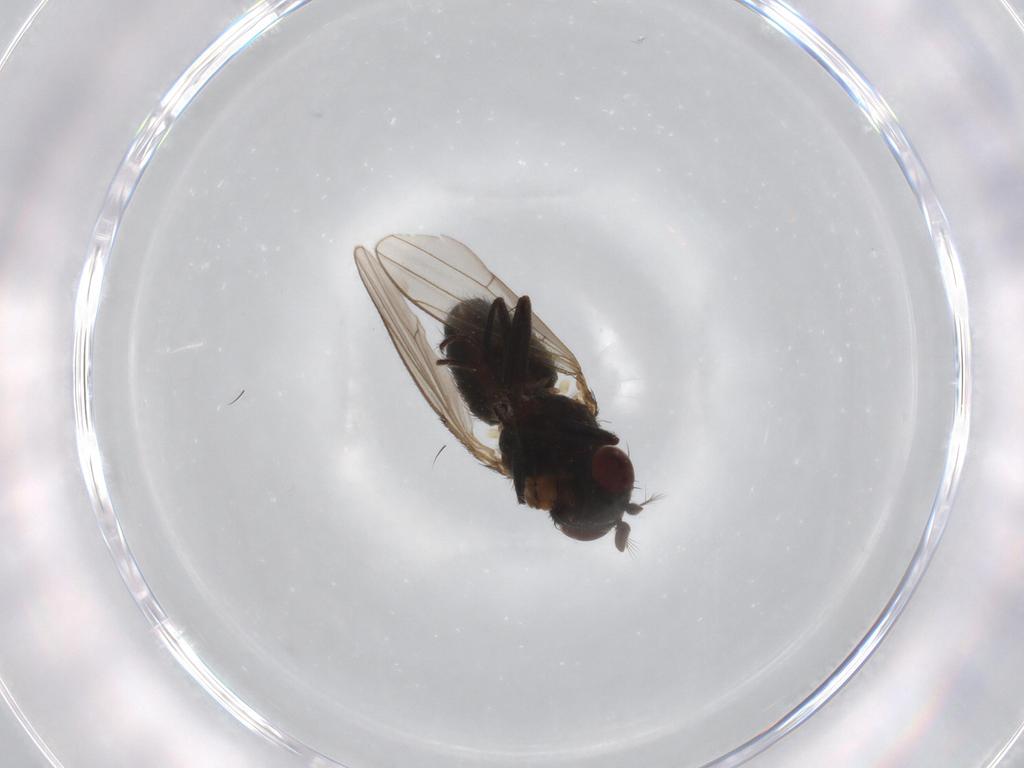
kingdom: Animalia
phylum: Arthropoda
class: Insecta
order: Diptera
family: Ephydridae
